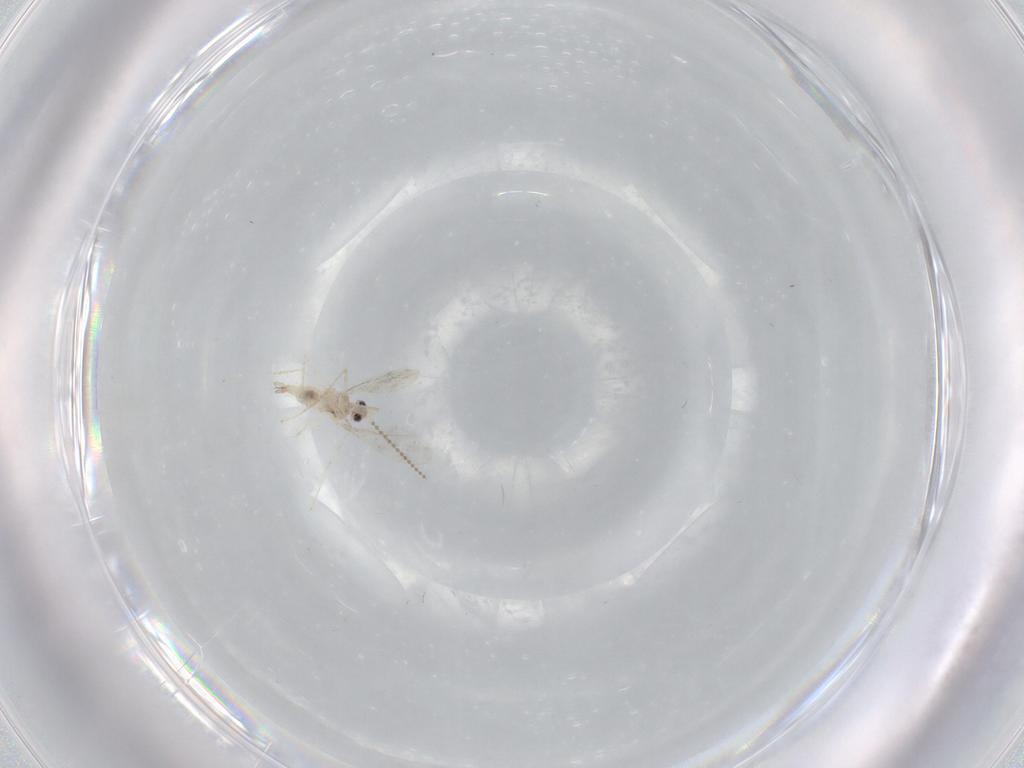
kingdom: Animalia
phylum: Arthropoda
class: Insecta
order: Diptera
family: Cecidomyiidae
